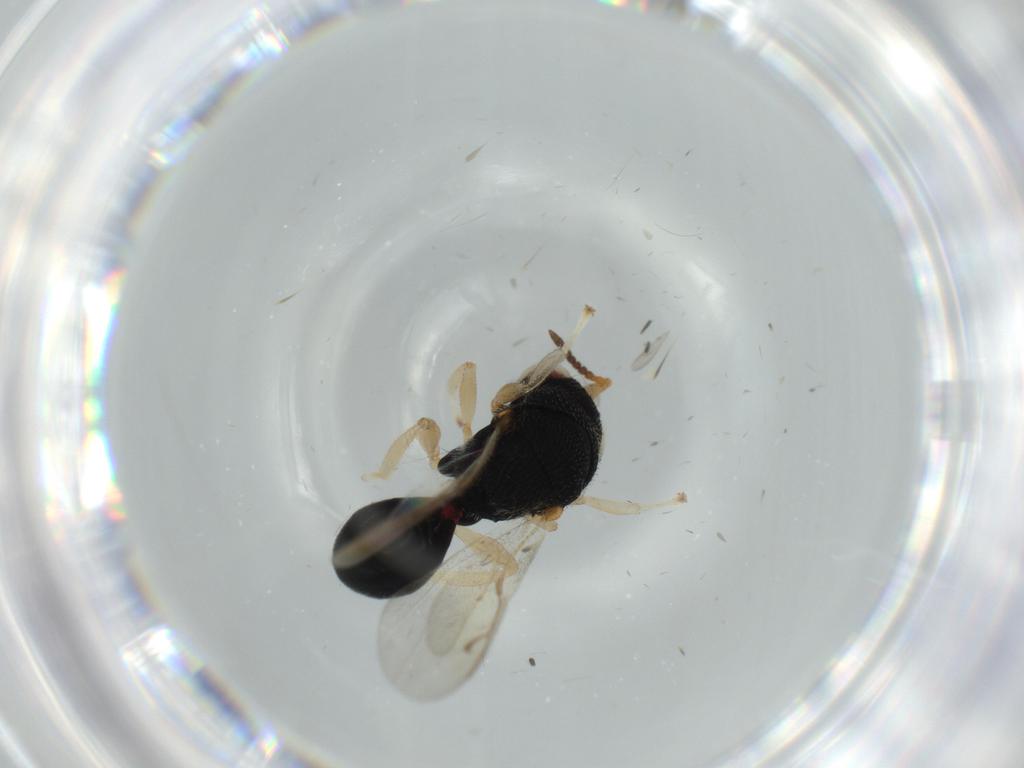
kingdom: Animalia
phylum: Arthropoda
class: Insecta
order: Hymenoptera
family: Eurytomidae
